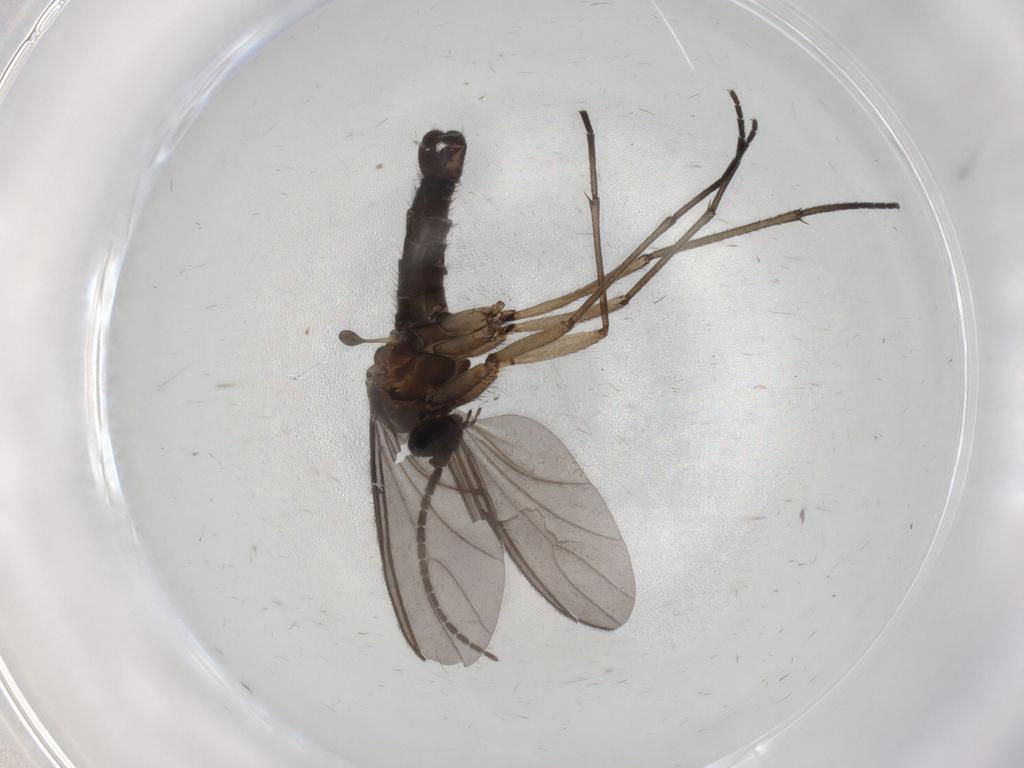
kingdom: Animalia
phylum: Arthropoda
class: Insecta
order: Diptera
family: Sciaridae
